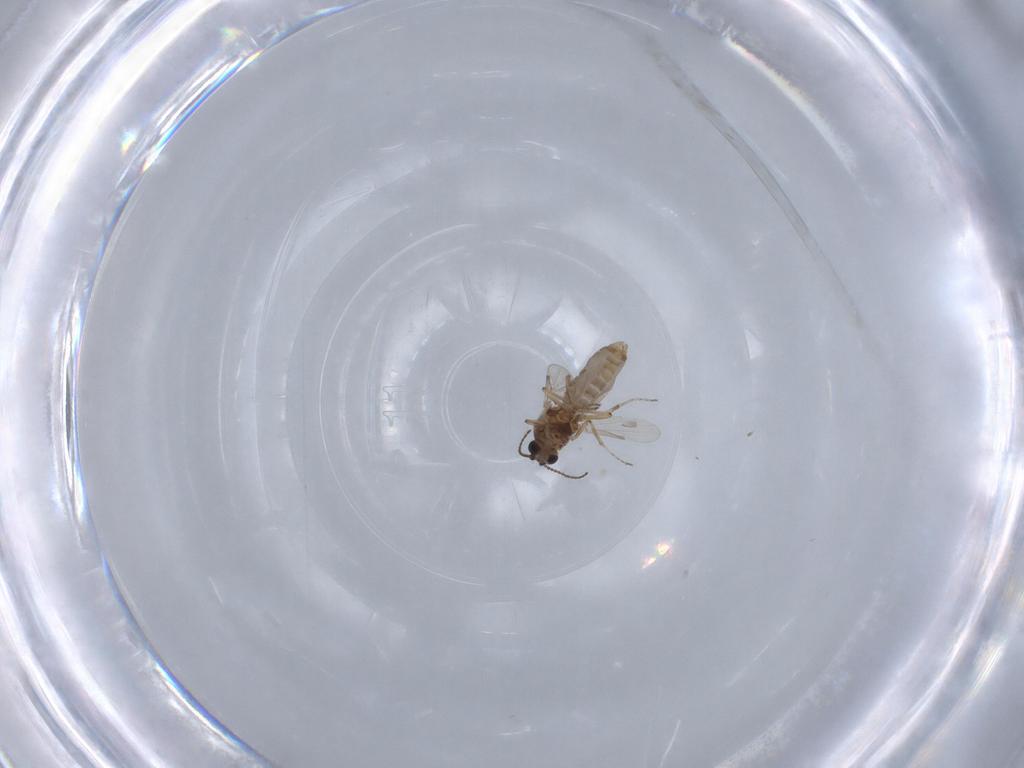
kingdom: Animalia
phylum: Arthropoda
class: Insecta
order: Diptera
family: Ceratopogonidae
